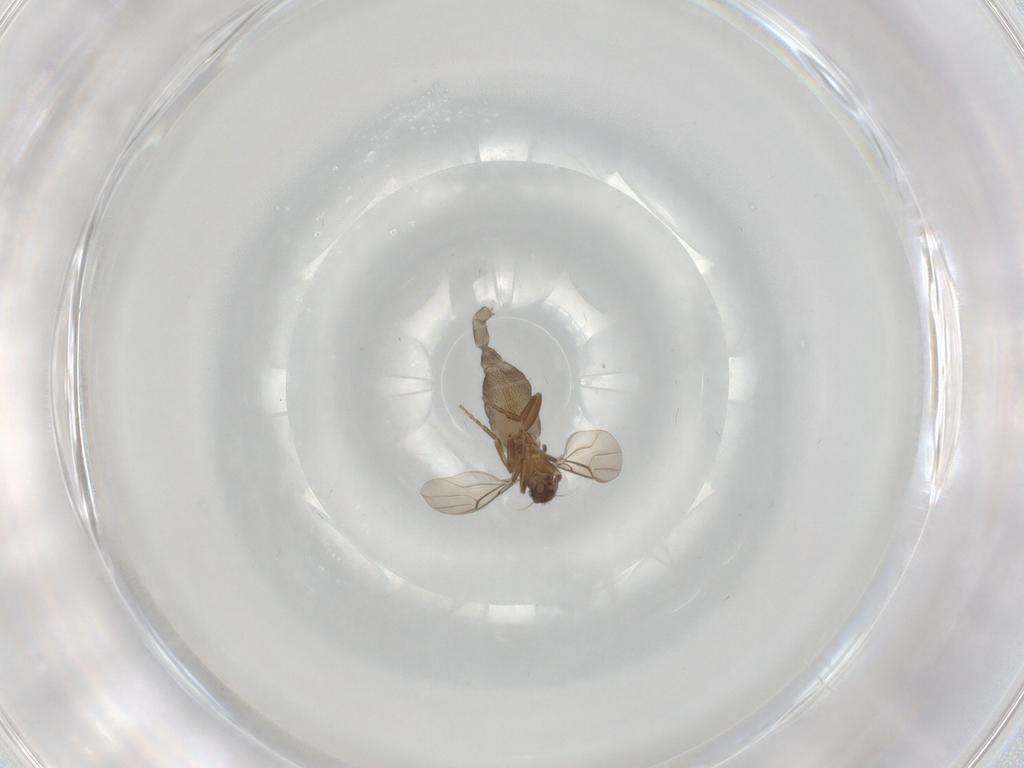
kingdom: Animalia
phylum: Arthropoda
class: Insecta
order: Diptera
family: Phoridae
